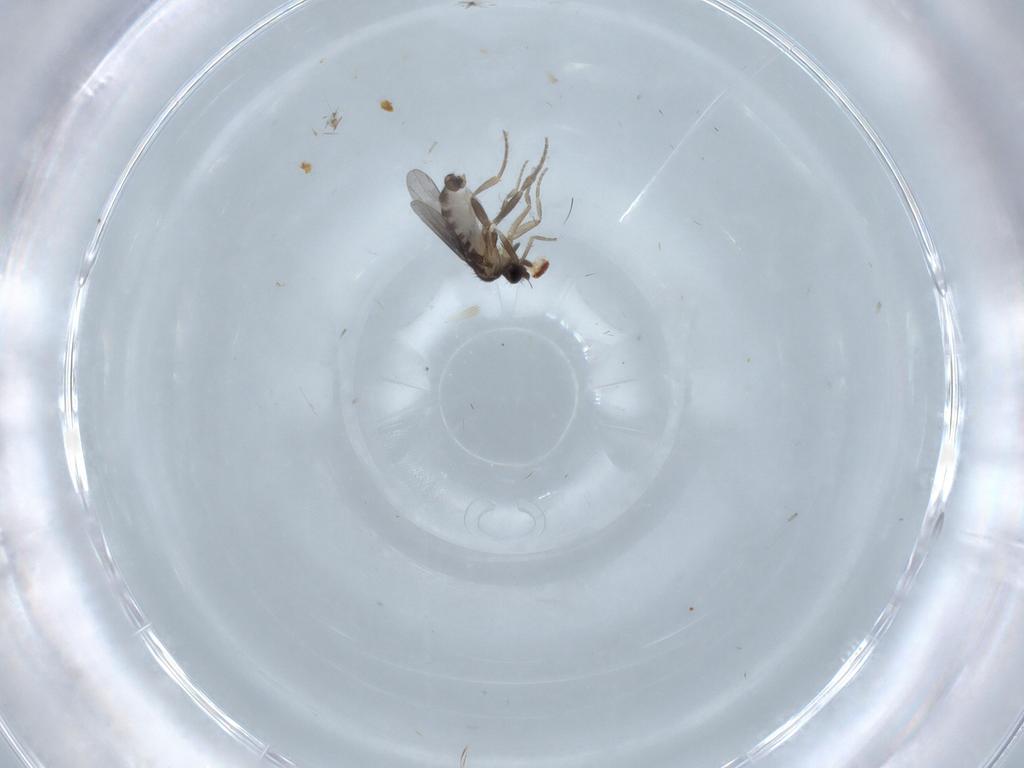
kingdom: Animalia
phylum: Arthropoda
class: Insecta
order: Diptera
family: Psychodidae
